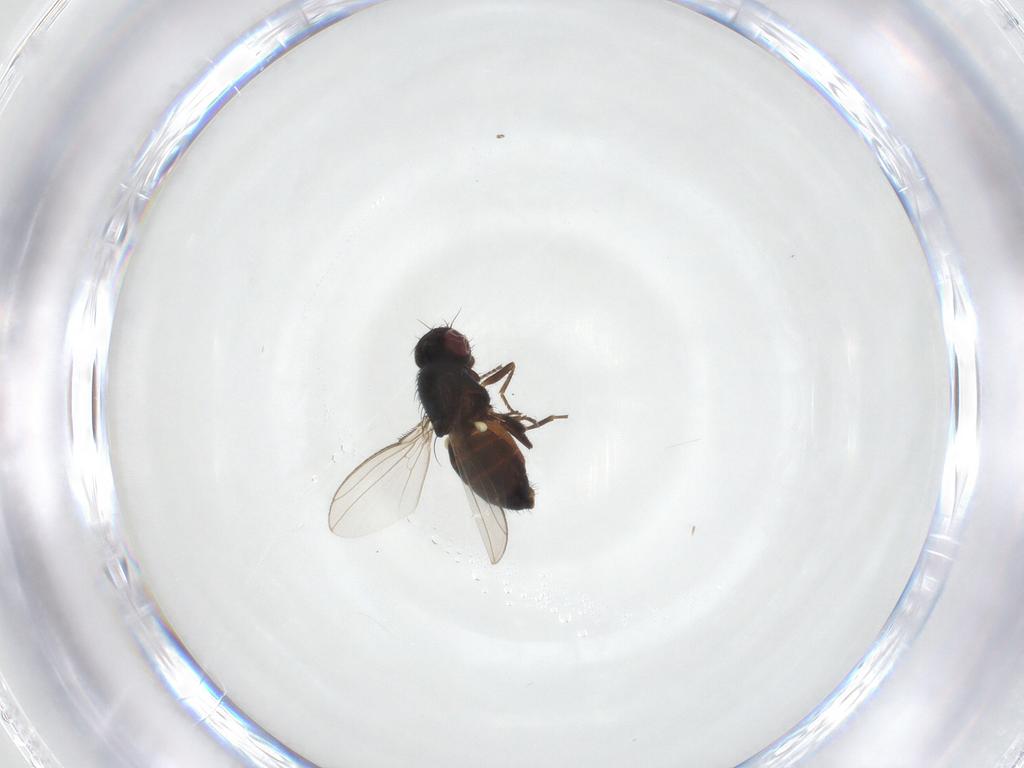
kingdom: Animalia
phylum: Arthropoda
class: Insecta
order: Diptera
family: Carnidae
